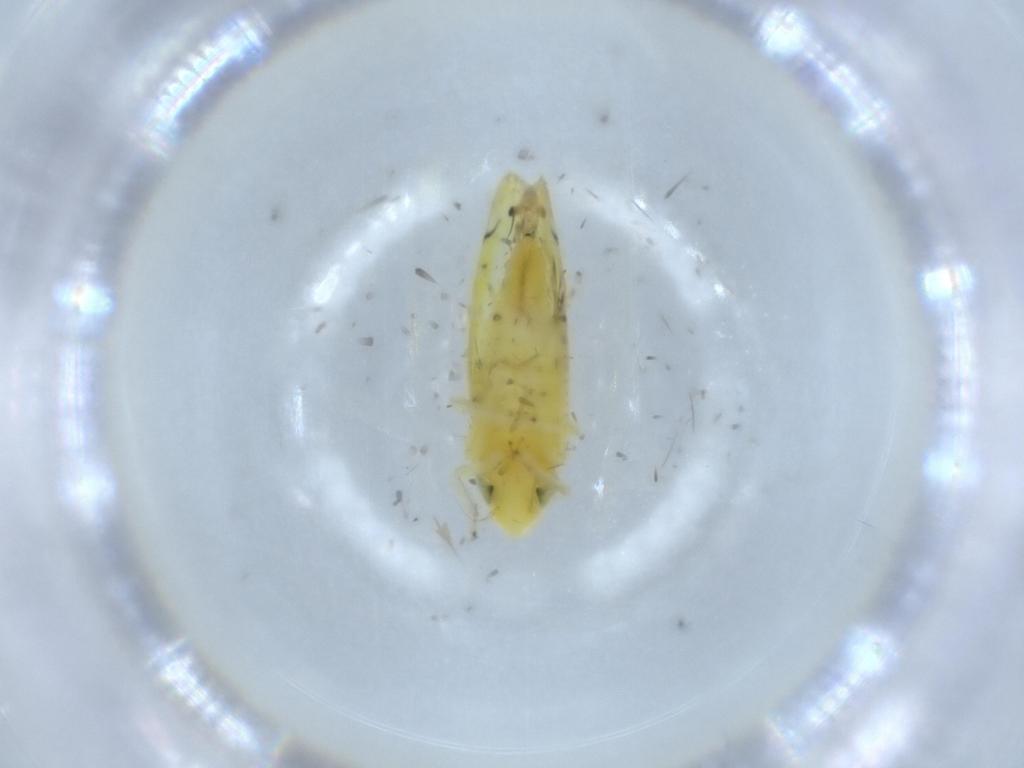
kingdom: Animalia
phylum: Arthropoda
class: Insecta
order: Hemiptera
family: Cicadellidae
